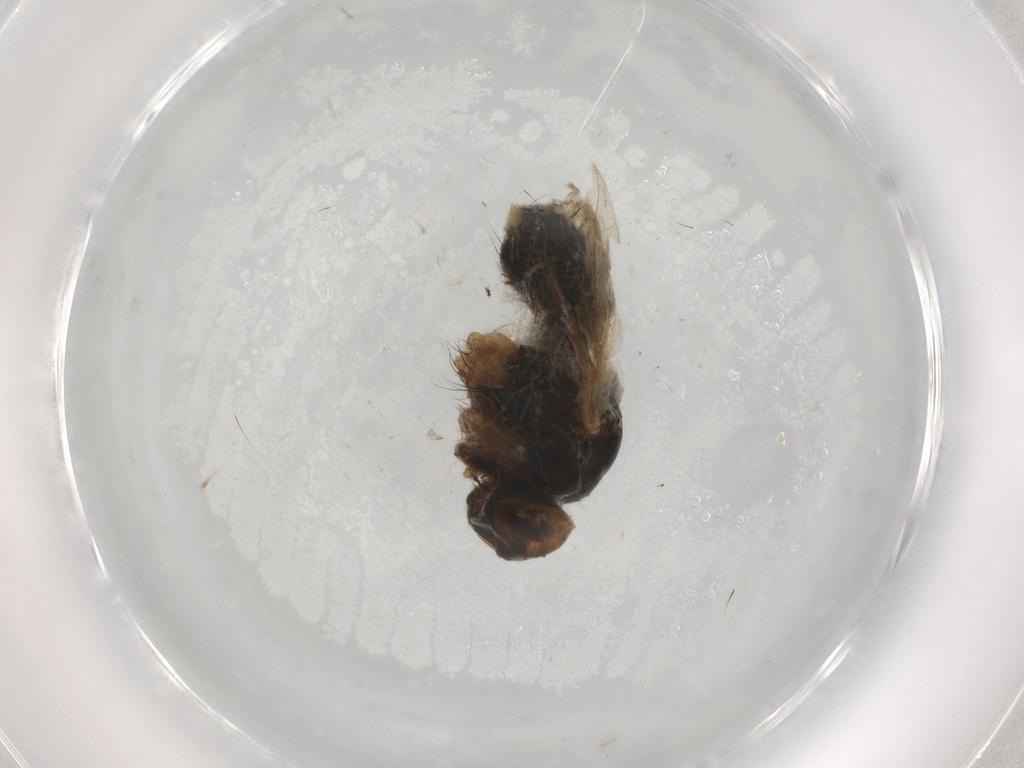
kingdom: Animalia
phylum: Arthropoda
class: Insecta
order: Diptera
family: Muscidae
